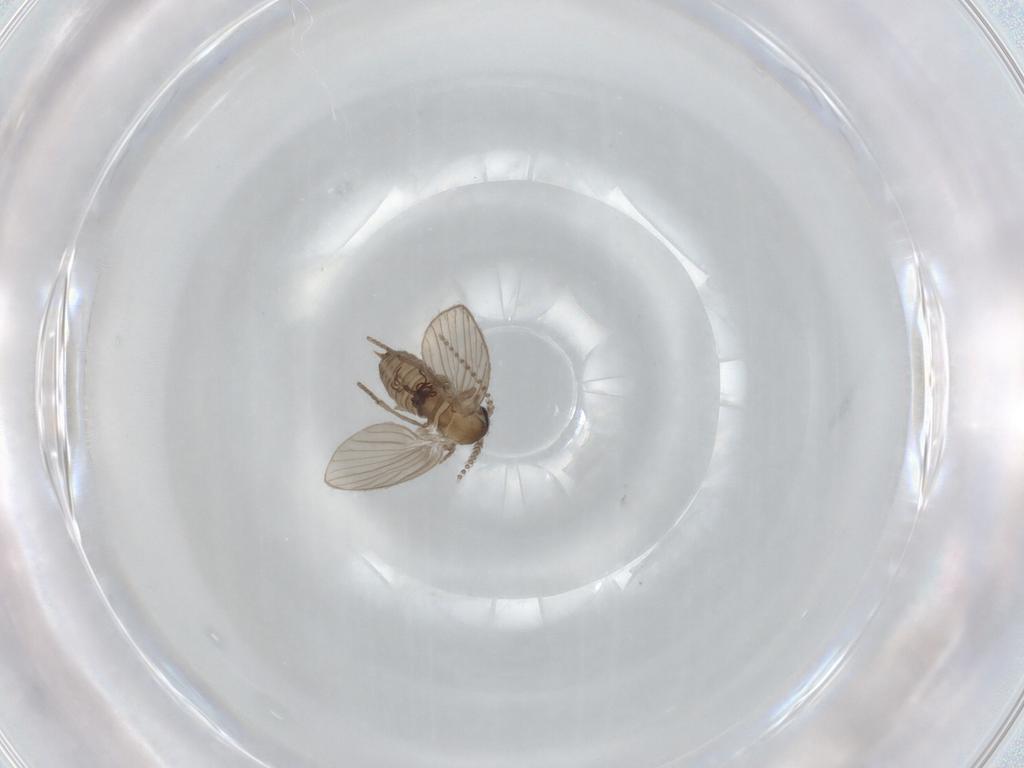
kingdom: Animalia
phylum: Arthropoda
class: Insecta
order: Diptera
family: Psychodidae
